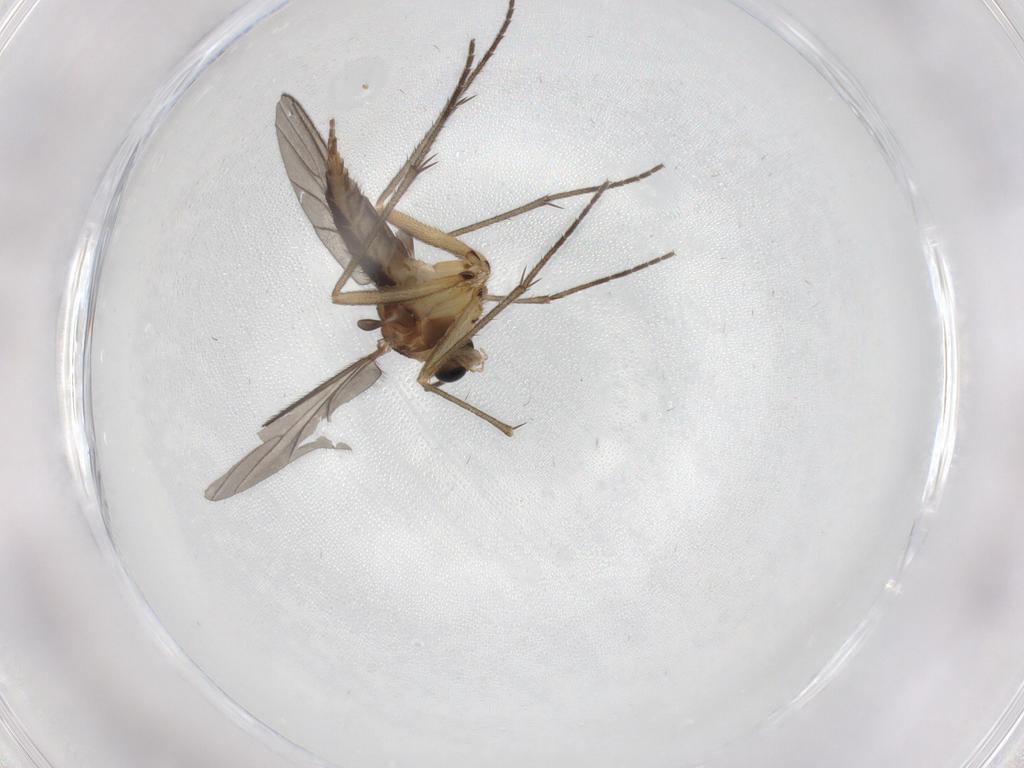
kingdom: Animalia
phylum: Arthropoda
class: Insecta
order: Diptera
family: Sciaridae
